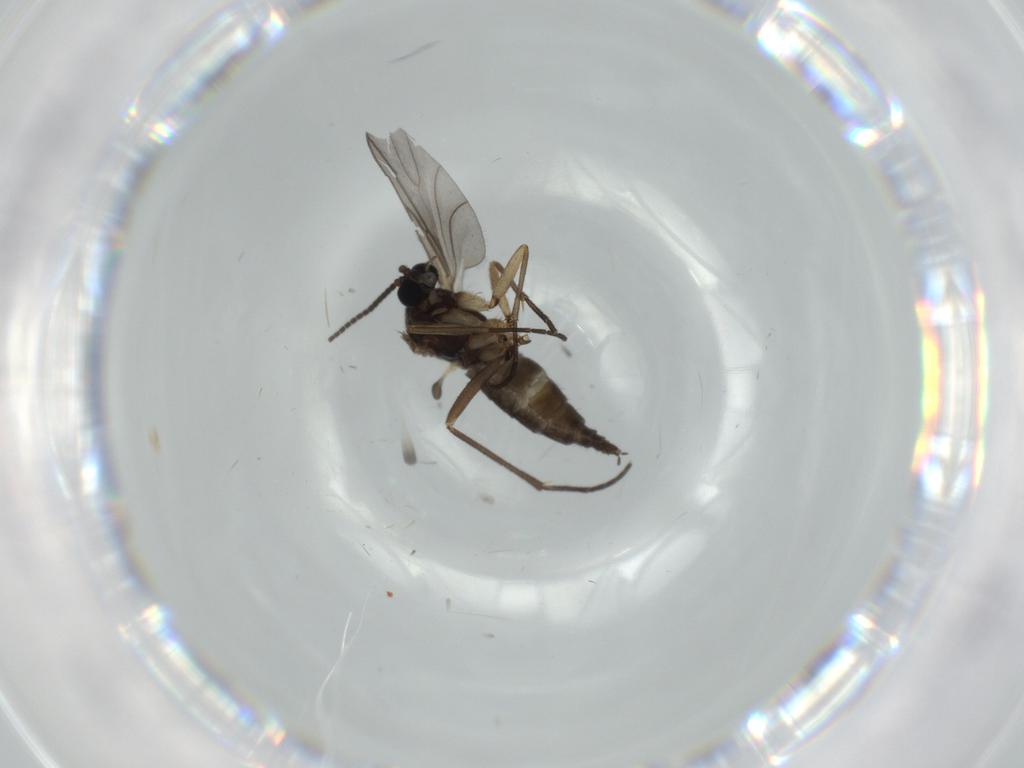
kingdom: Animalia
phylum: Arthropoda
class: Insecta
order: Diptera
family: Sciaridae
